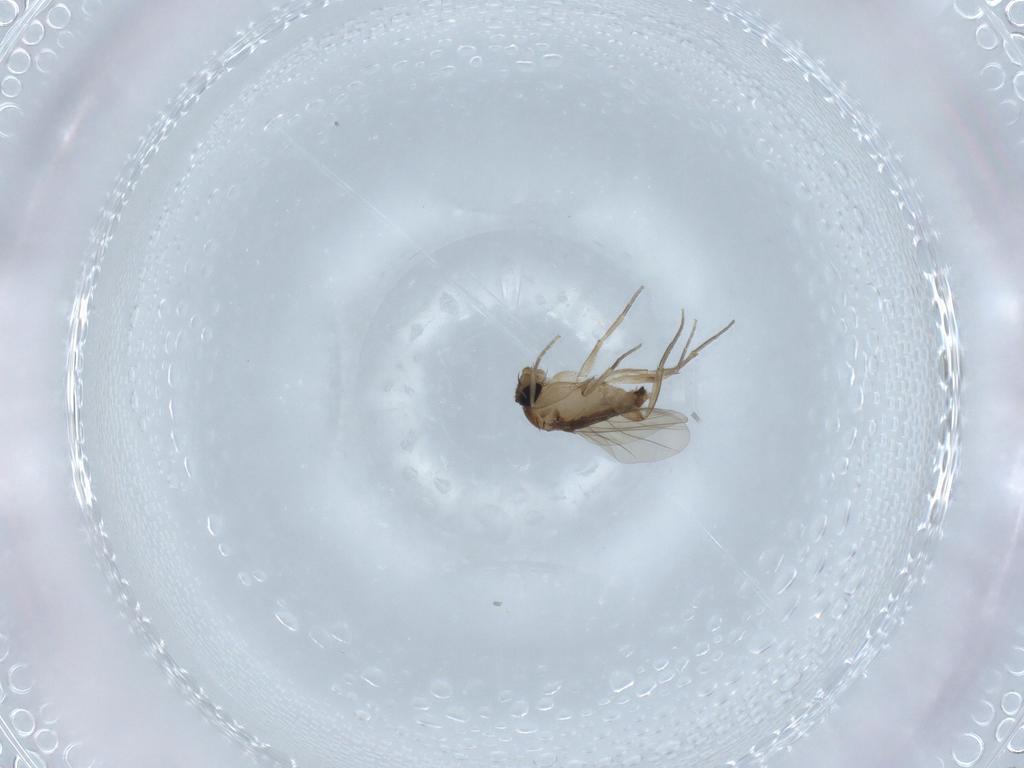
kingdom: Animalia
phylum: Arthropoda
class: Insecta
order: Diptera
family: Phoridae
